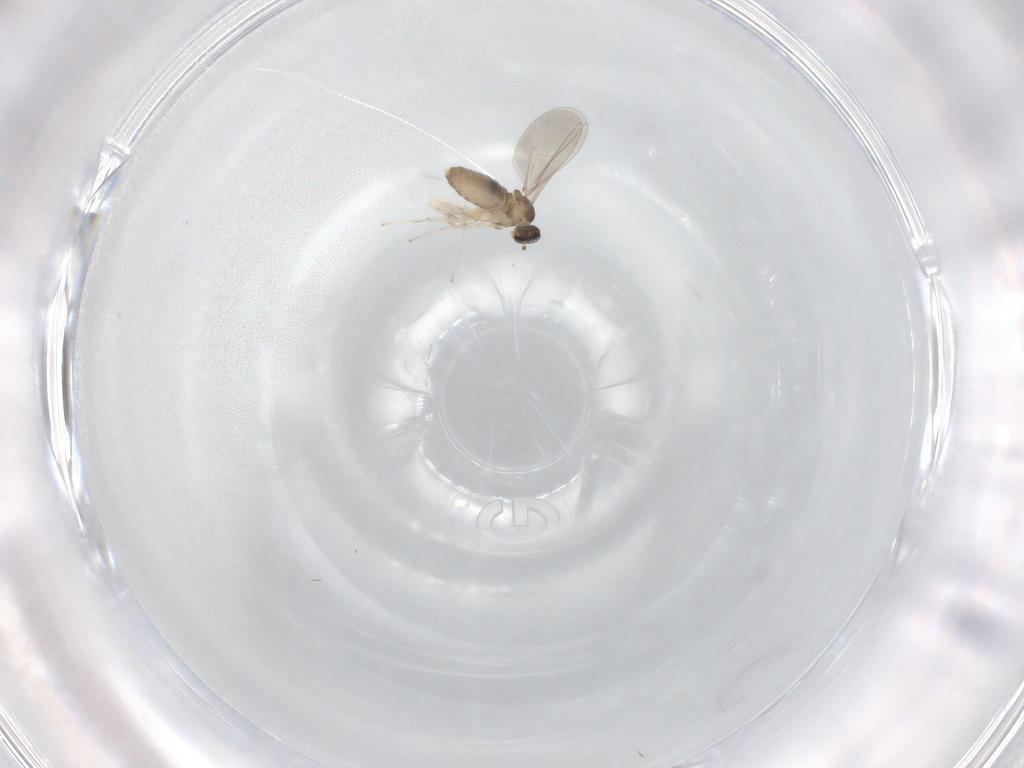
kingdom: Animalia
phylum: Arthropoda
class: Insecta
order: Diptera
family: Cecidomyiidae
